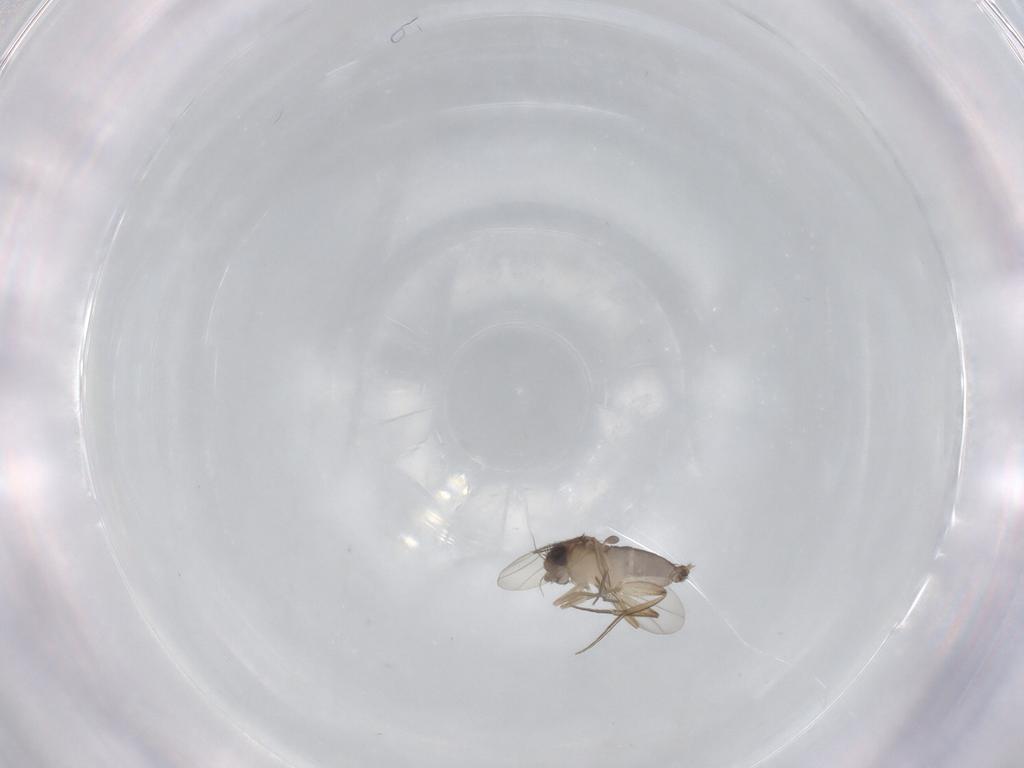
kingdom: Animalia
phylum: Arthropoda
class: Insecta
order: Diptera
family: Phoridae
